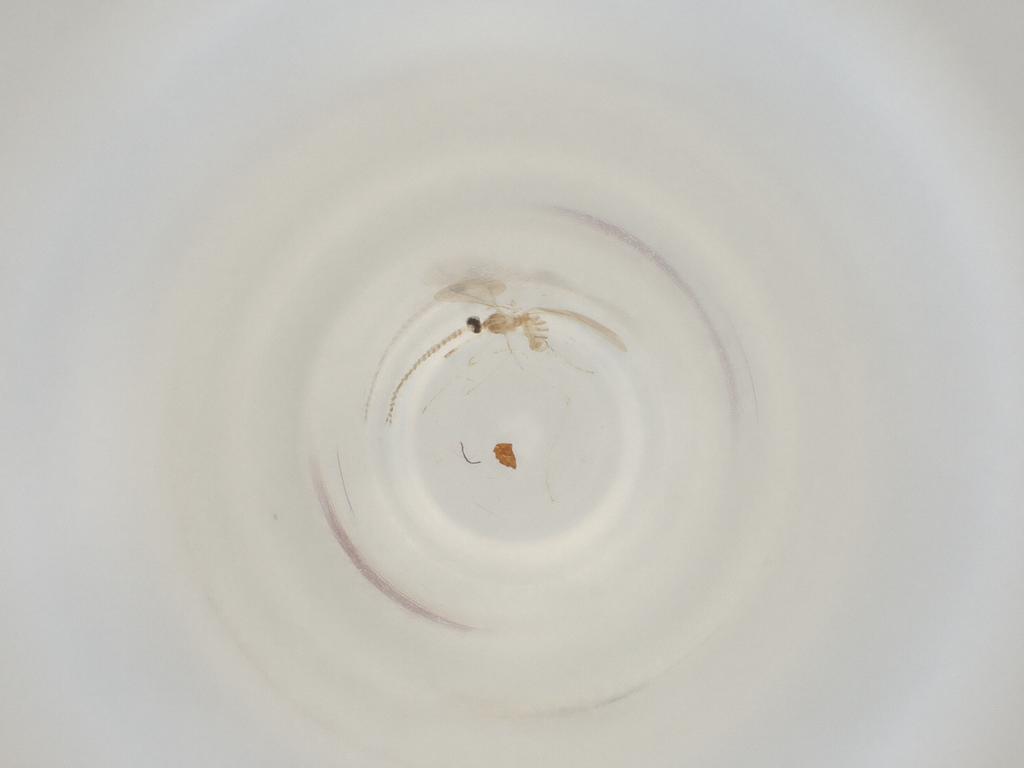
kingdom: Animalia
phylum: Arthropoda
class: Insecta
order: Diptera
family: Cecidomyiidae
